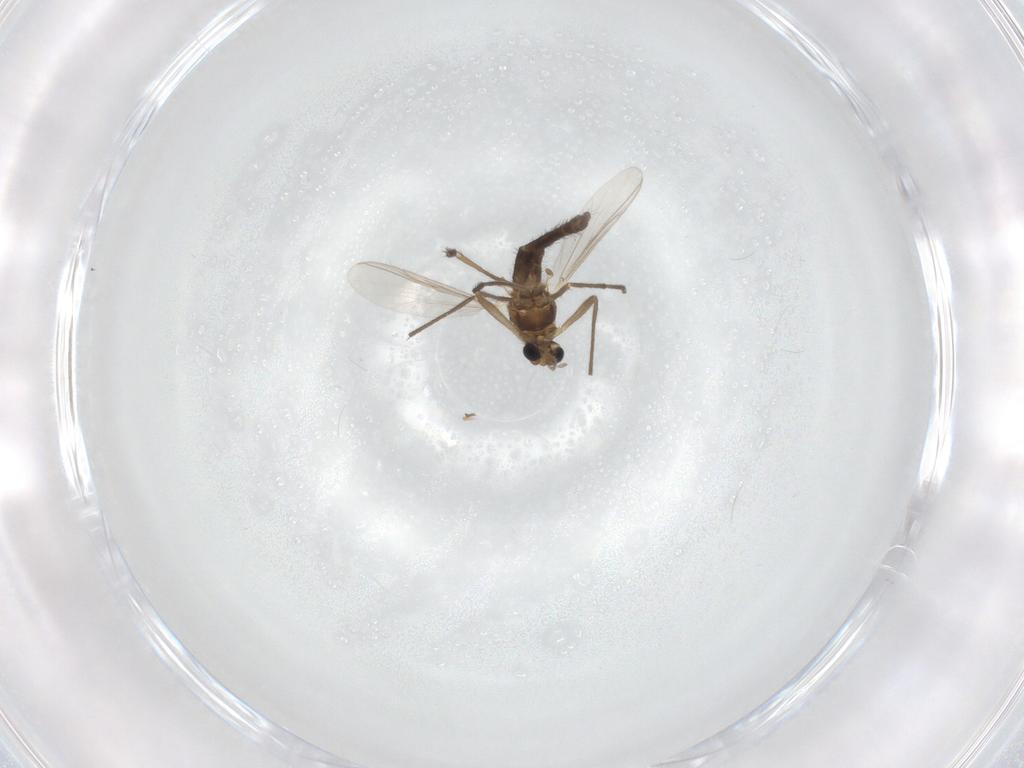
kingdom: Animalia
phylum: Arthropoda
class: Insecta
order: Diptera
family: Chironomidae
